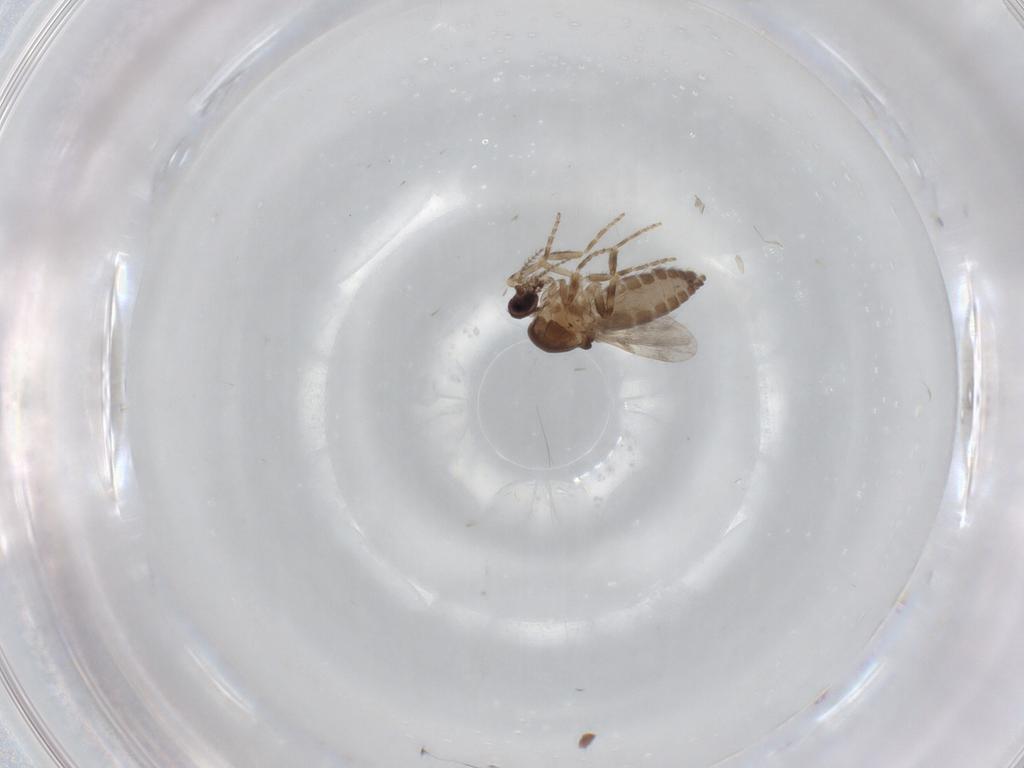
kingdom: Animalia
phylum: Arthropoda
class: Insecta
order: Diptera
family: Ceratopogonidae
